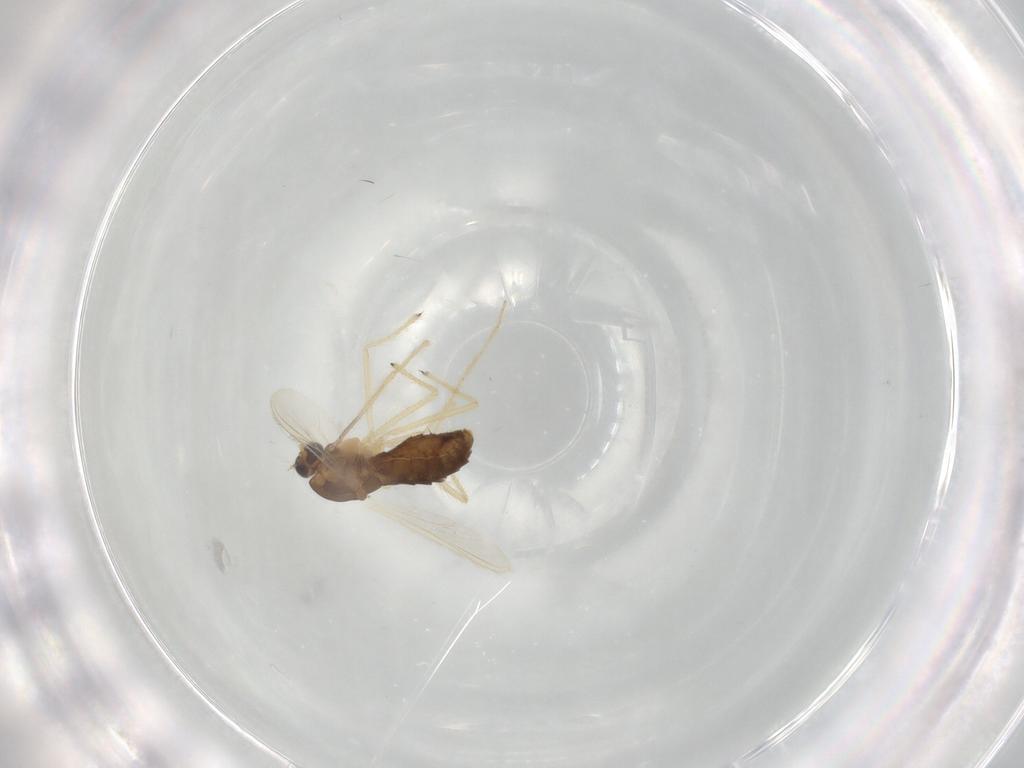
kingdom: Animalia
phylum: Arthropoda
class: Insecta
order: Diptera
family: Chironomidae
